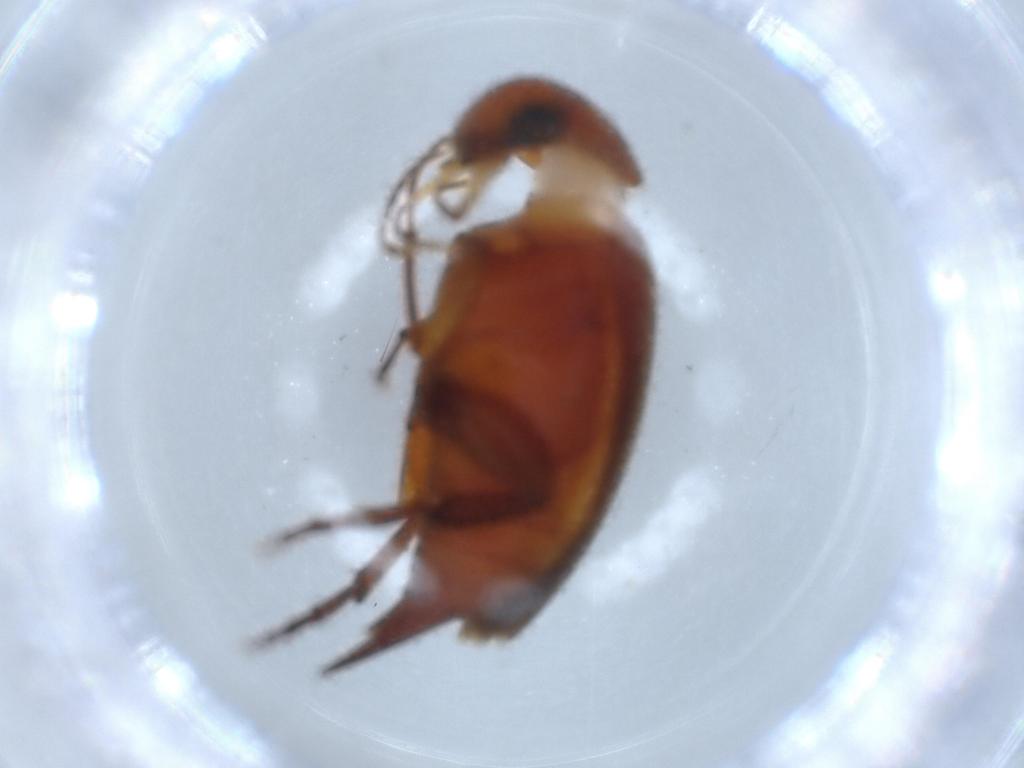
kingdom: Animalia
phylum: Arthropoda
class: Insecta
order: Coleoptera
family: Mordellidae
